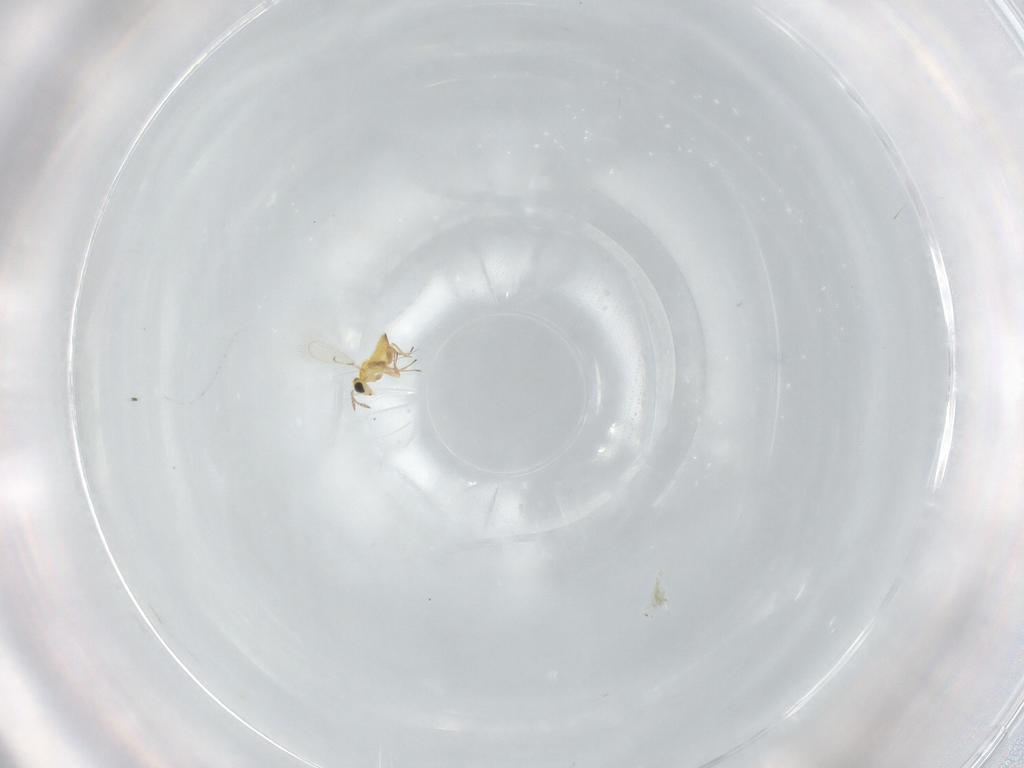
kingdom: Animalia
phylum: Arthropoda
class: Insecta
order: Hymenoptera
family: Trichogrammatidae
